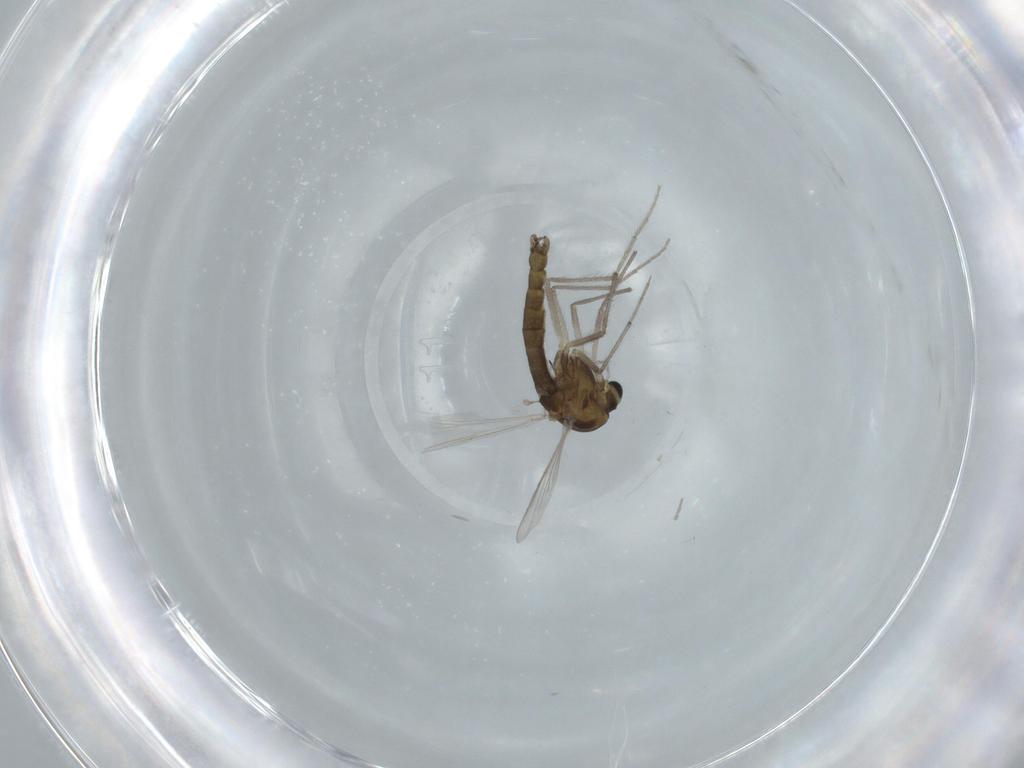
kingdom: Animalia
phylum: Arthropoda
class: Insecta
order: Diptera
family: Chironomidae
